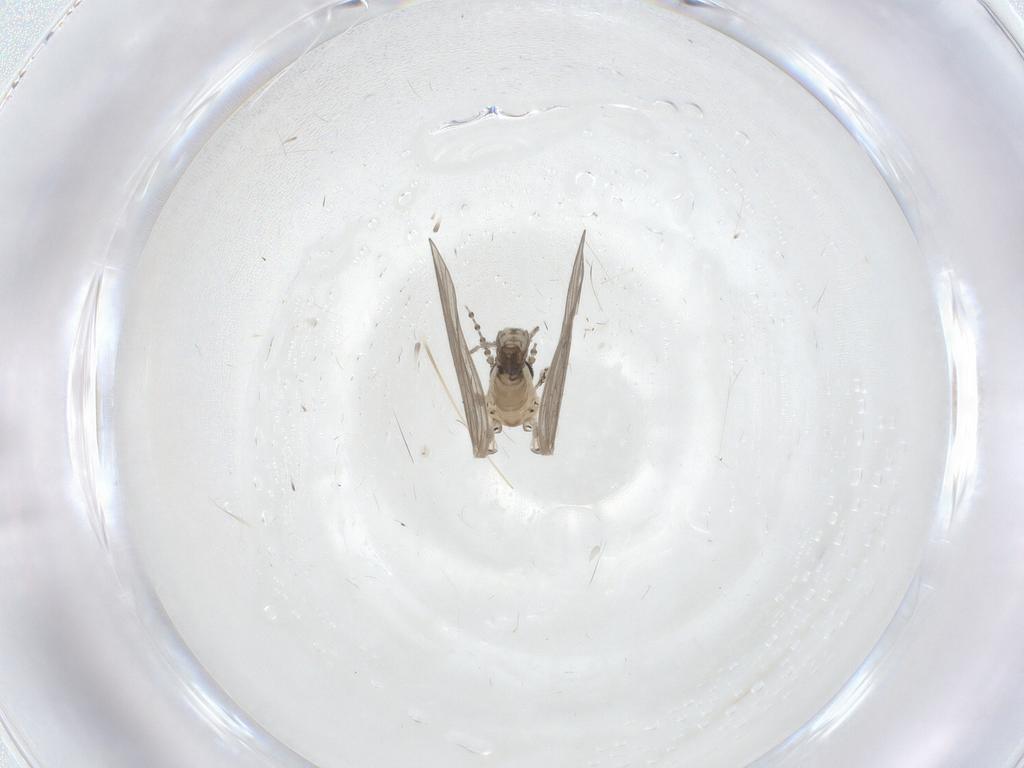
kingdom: Animalia
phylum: Arthropoda
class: Insecta
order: Diptera
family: Psychodidae
